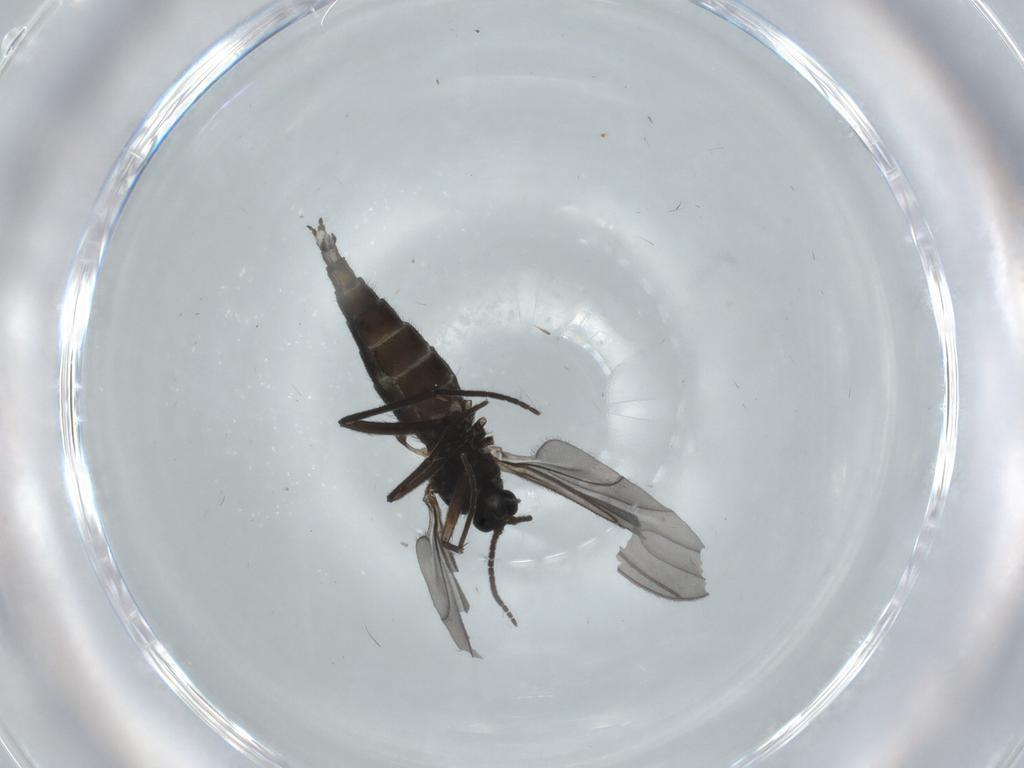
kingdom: Animalia
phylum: Arthropoda
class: Insecta
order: Diptera
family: Sciaridae
